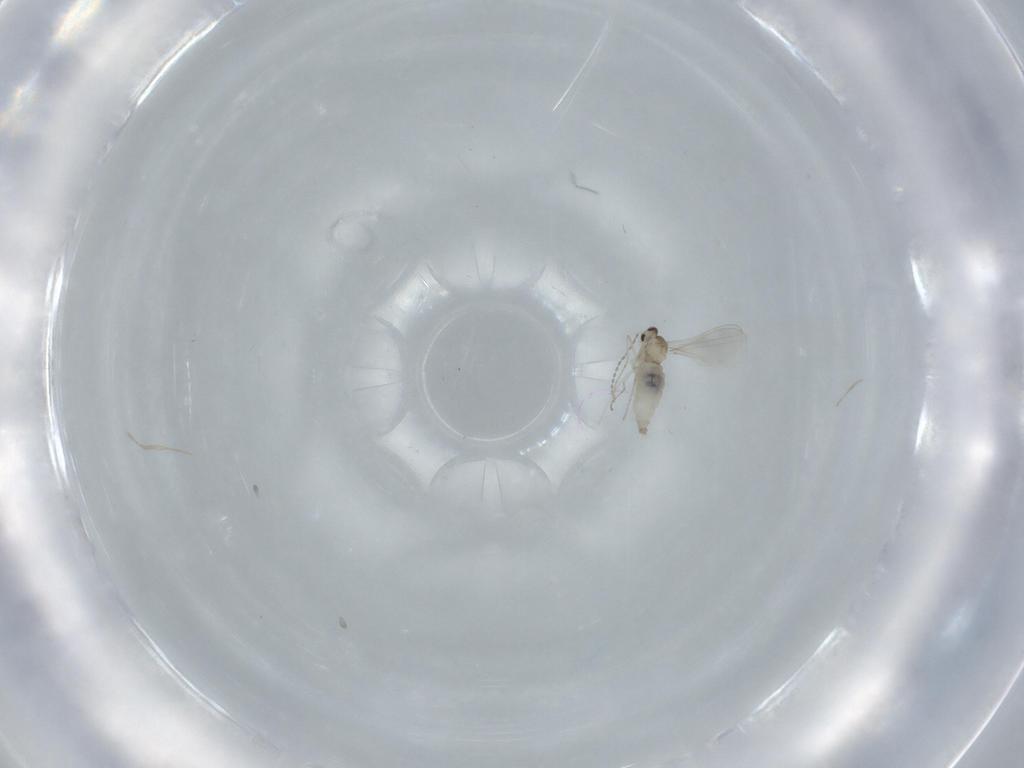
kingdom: Animalia
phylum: Arthropoda
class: Insecta
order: Diptera
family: Cecidomyiidae
